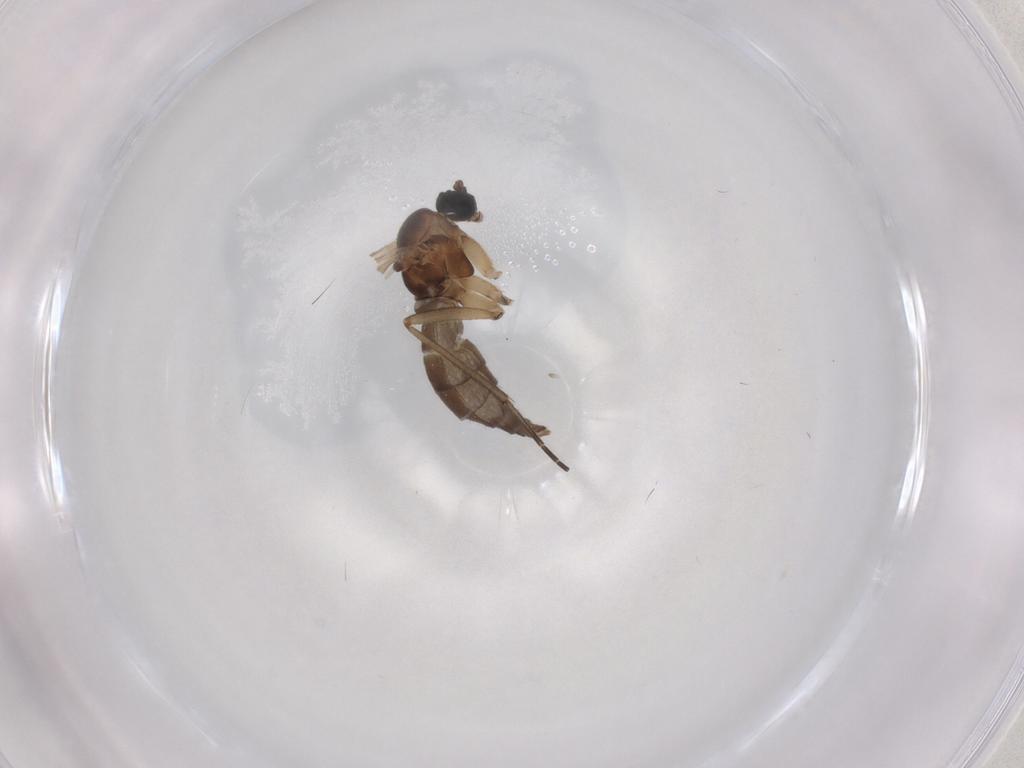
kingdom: Animalia
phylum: Arthropoda
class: Insecta
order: Diptera
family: Sciaridae
